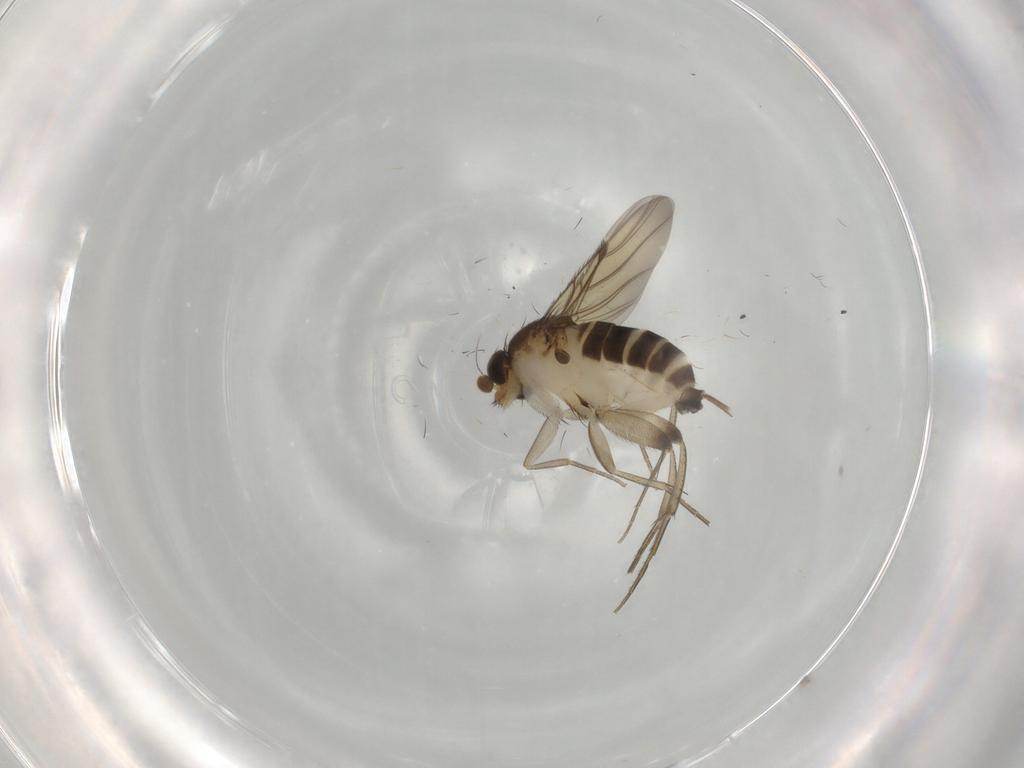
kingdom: Animalia
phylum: Arthropoda
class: Insecta
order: Diptera
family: Phoridae
